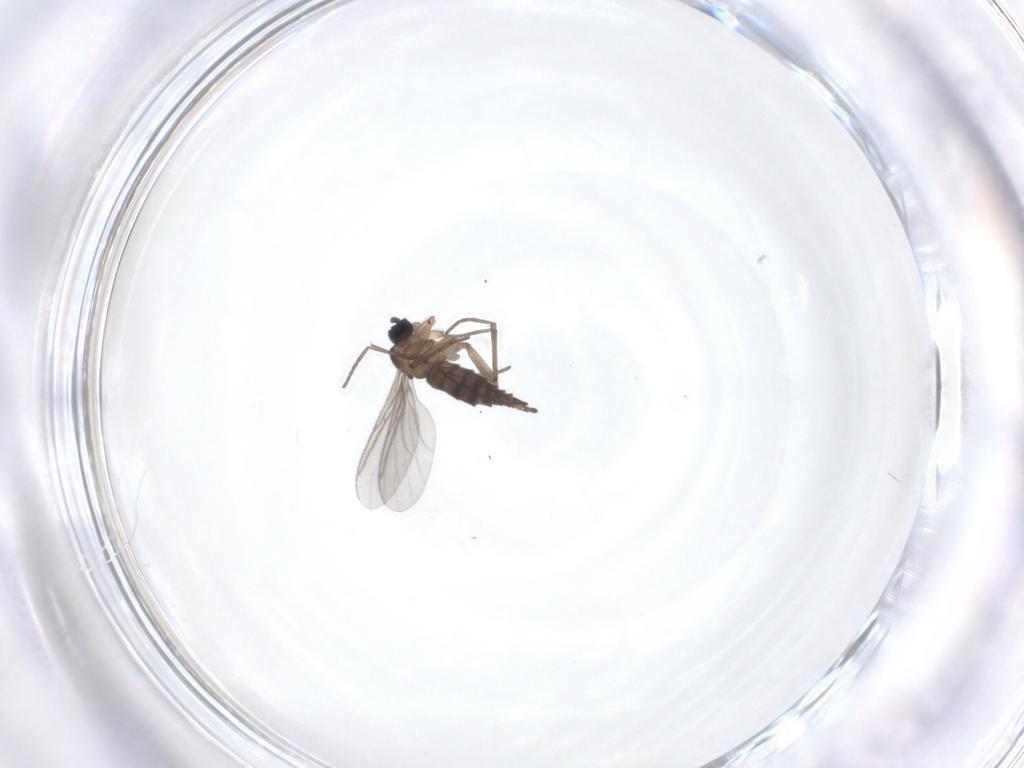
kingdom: Animalia
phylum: Arthropoda
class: Insecta
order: Diptera
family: Sciaridae
